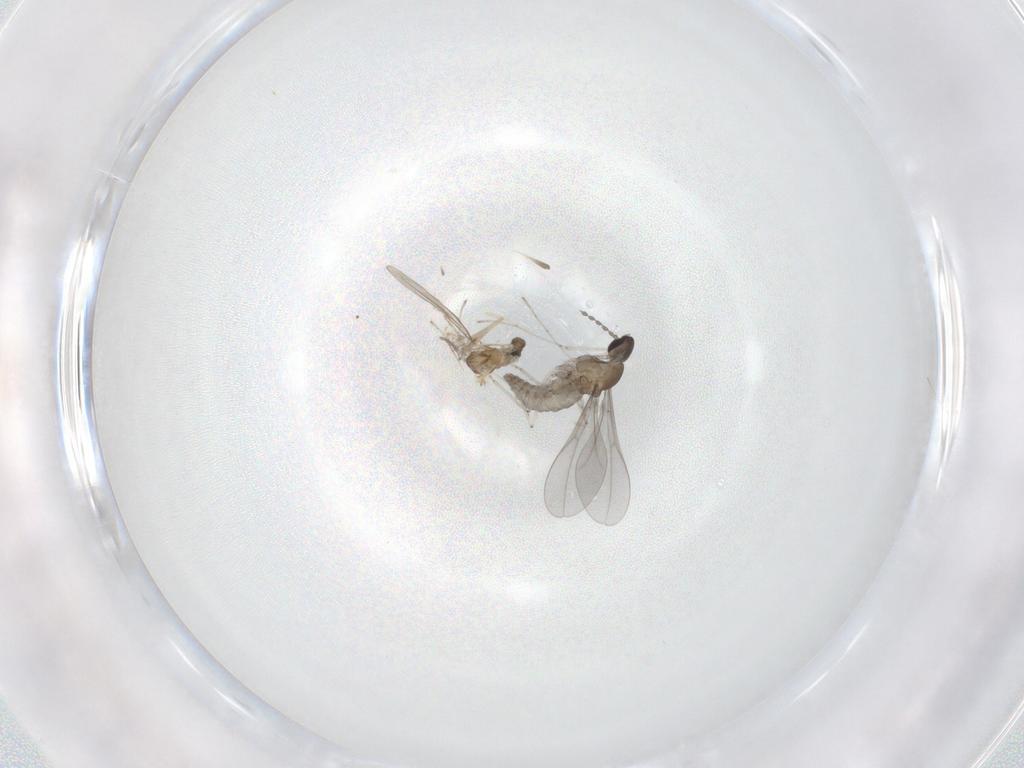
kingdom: Animalia
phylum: Arthropoda
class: Insecta
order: Diptera
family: Cecidomyiidae
